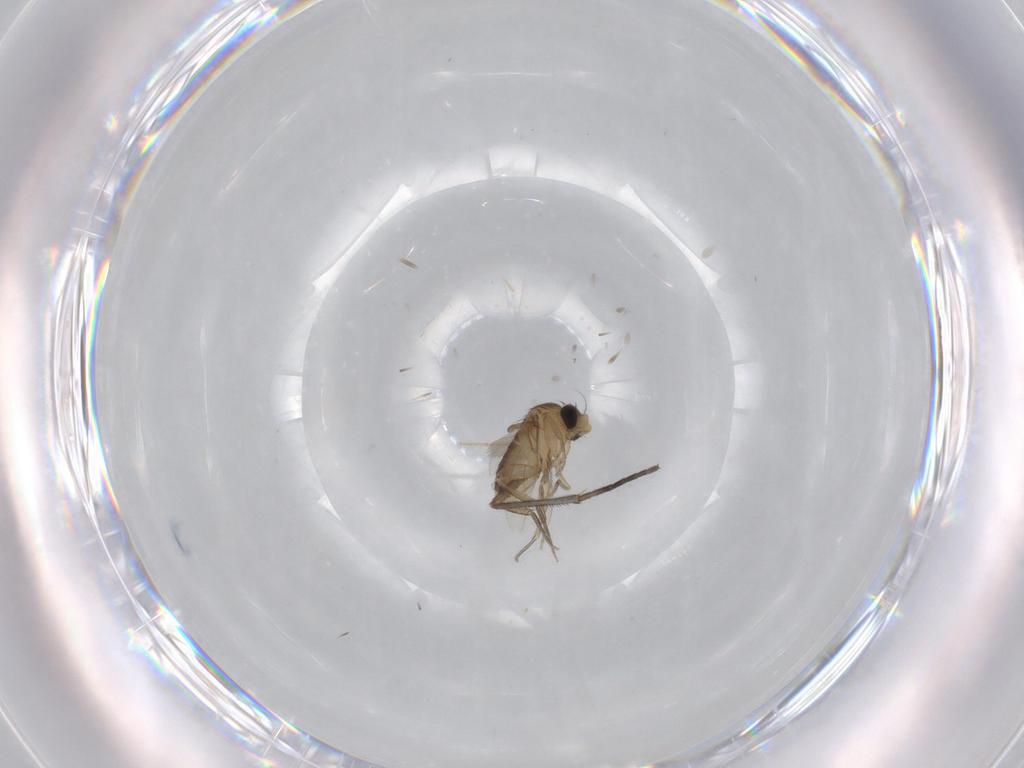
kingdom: Animalia
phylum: Arthropoda
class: Insecta
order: Diptera
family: Sciaridae
